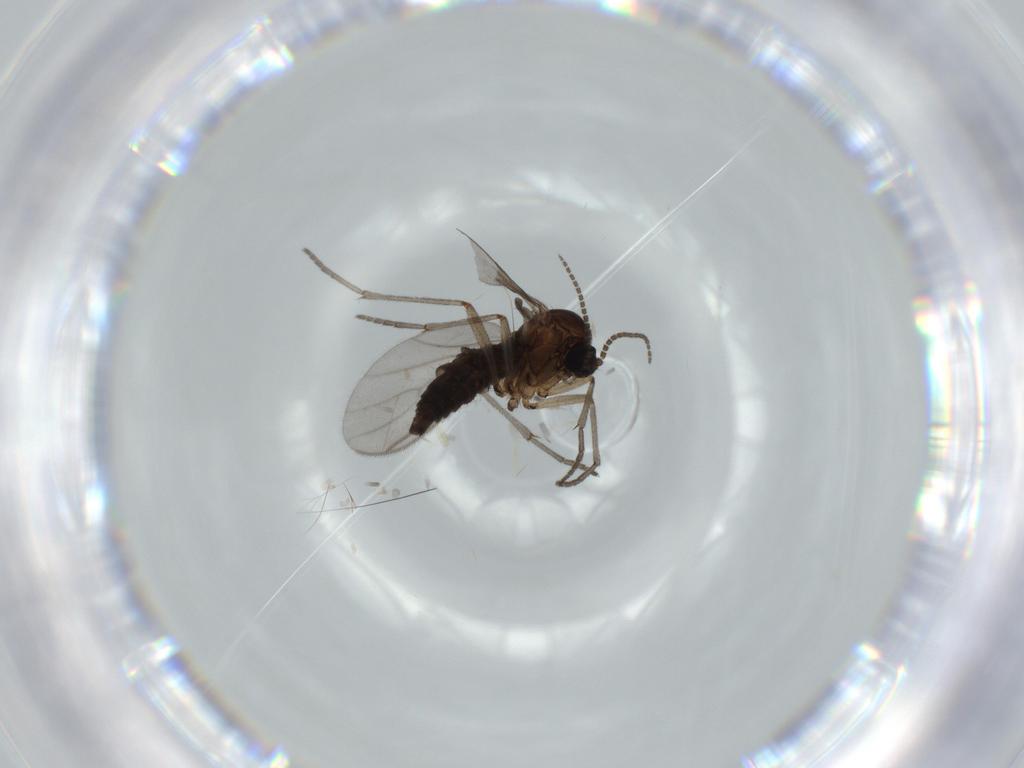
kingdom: Animalia
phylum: Arthropoda
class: Insecta
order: Diptera
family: Sciaridae
